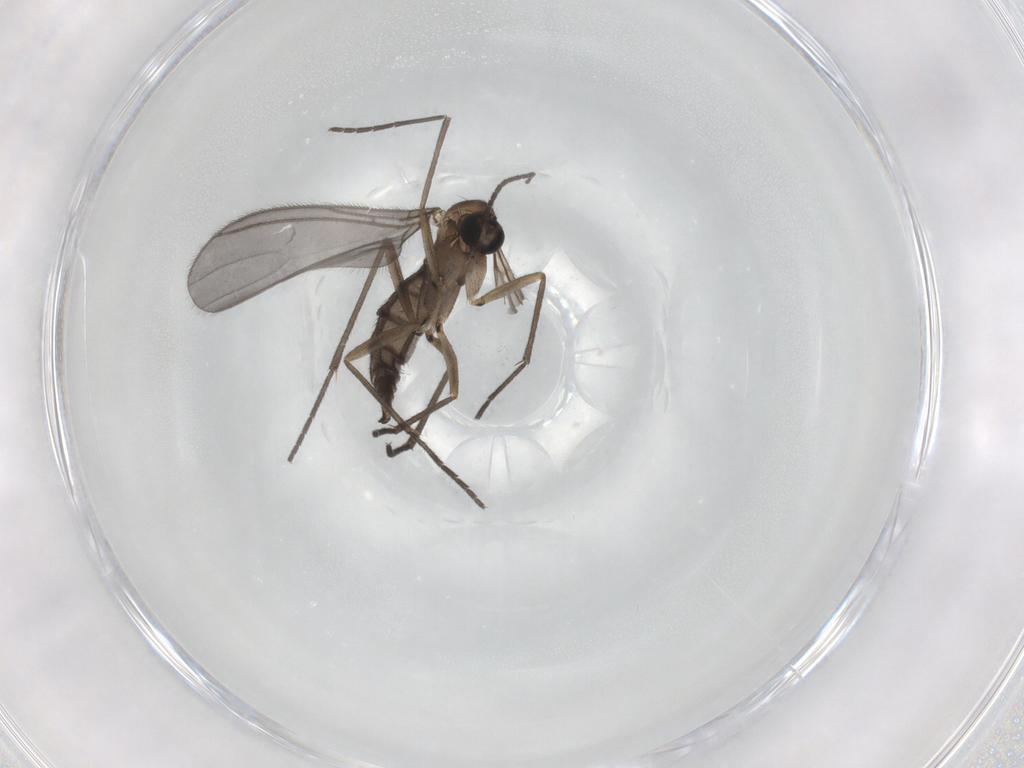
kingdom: Animalia
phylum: Arthropoda
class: Insecta
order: Diptera
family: Sciaridae
